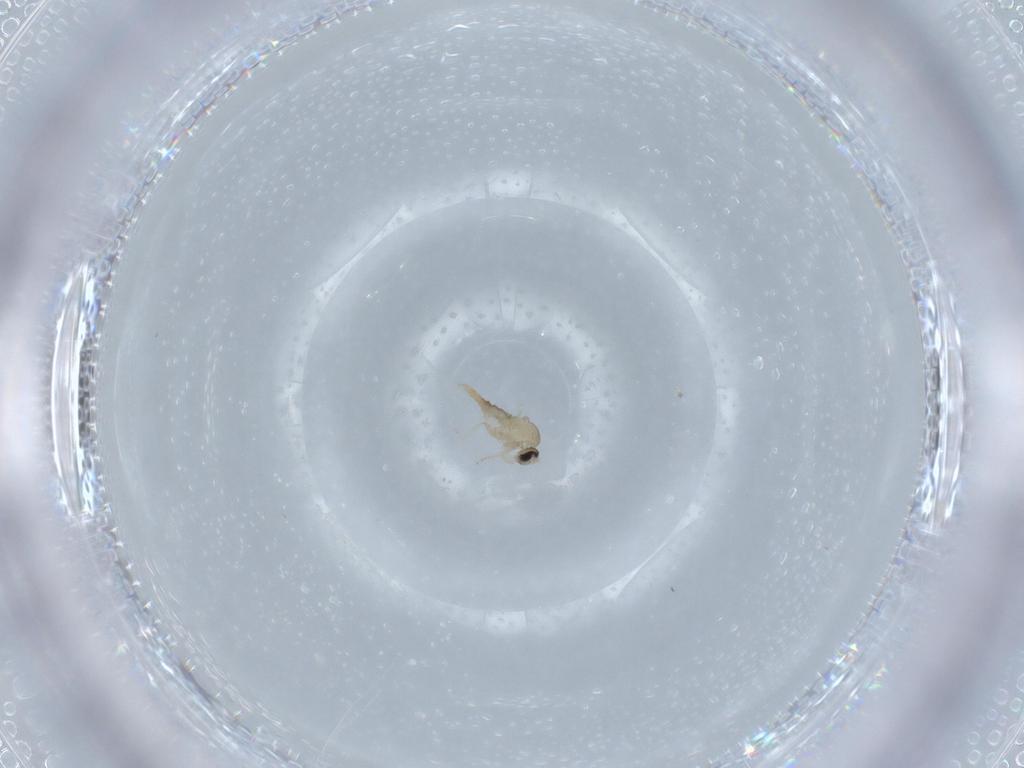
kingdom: Animalia
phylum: Arthropoda
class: Insecta
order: Diptera
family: Cecidomyiidae
